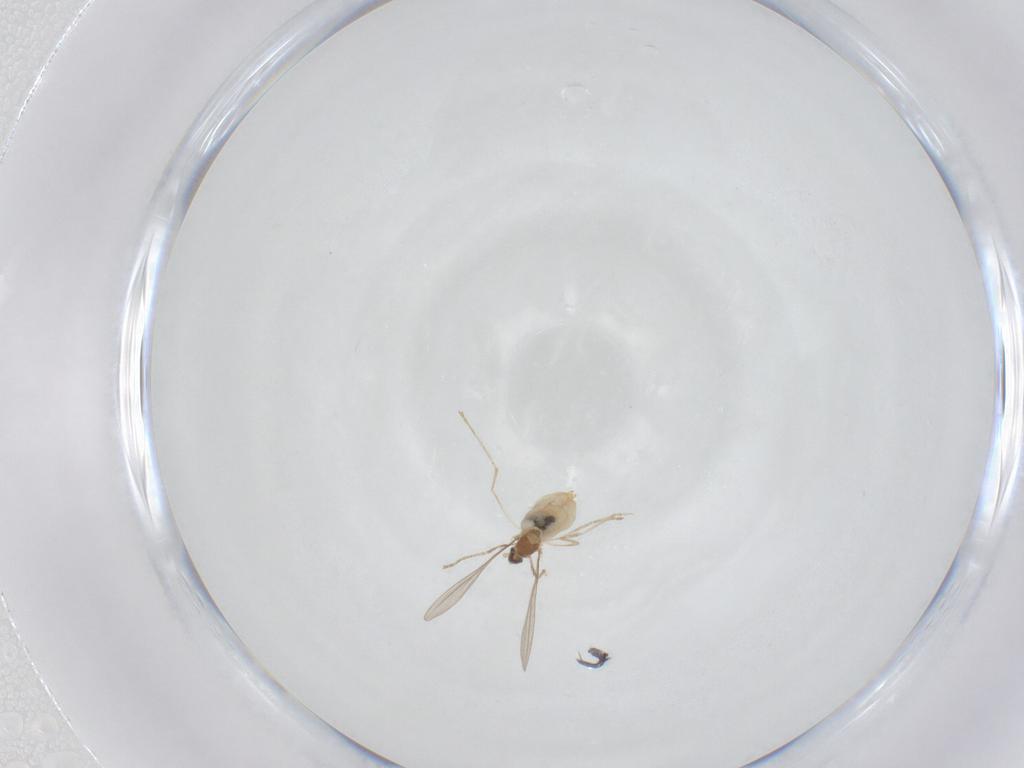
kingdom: Animalia
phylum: Arthropoda
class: Insecta
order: Diptera
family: Cecidomyiidae
